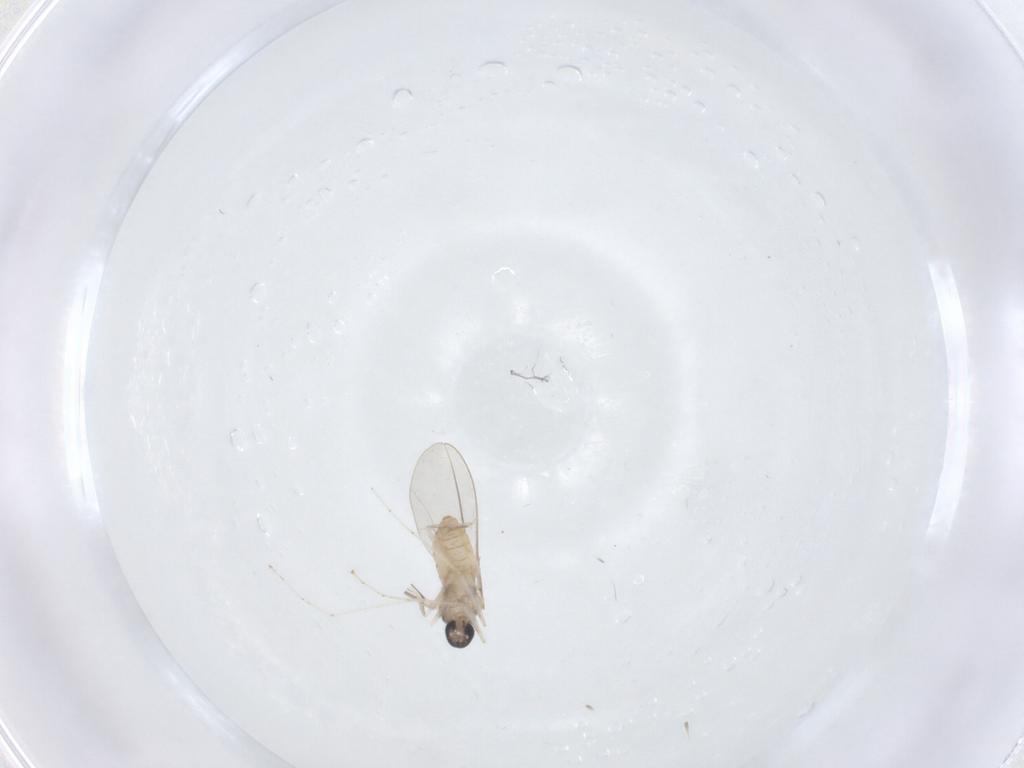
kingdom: Animalia
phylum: Arthropoda
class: Insecta
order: Diptera
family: Cecidomyiidae
